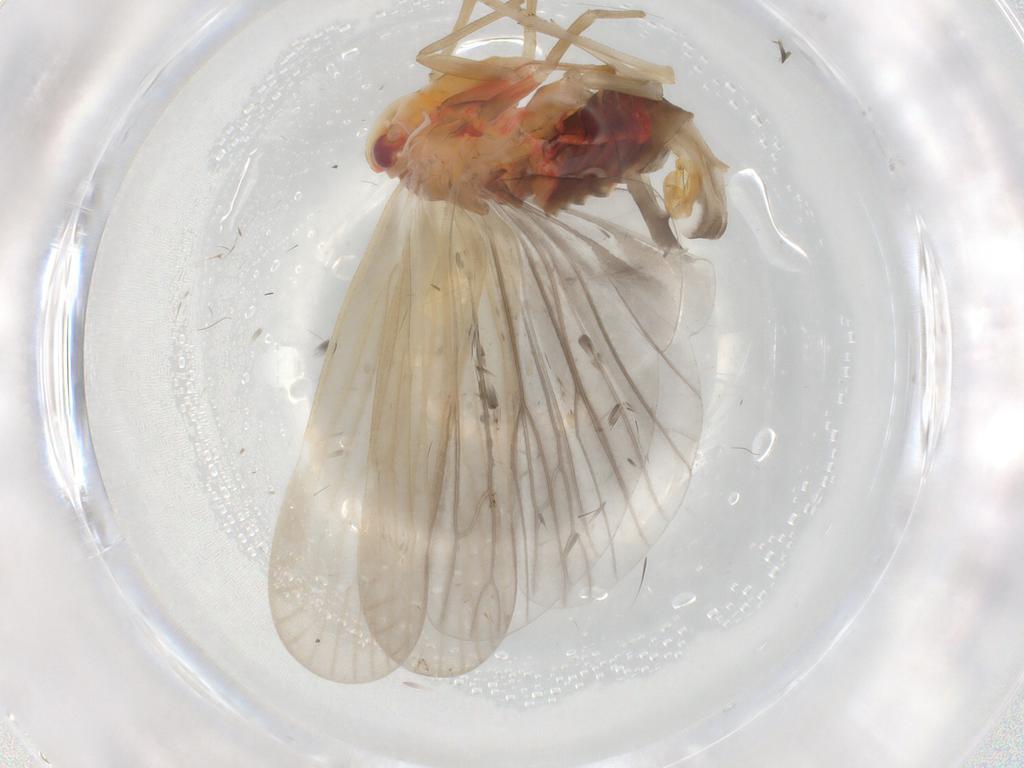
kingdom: Animalia
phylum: Arthropoda
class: Insecta
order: Hemiptera
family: Derbidae
